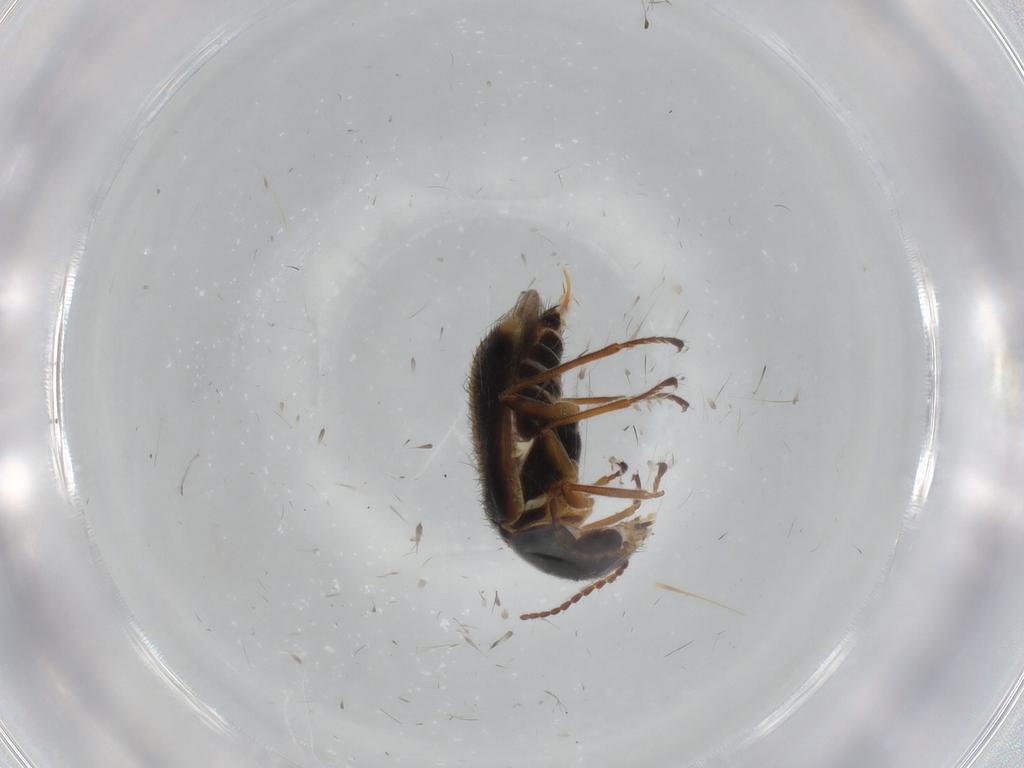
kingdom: Animalia
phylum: Arthropoda
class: Insecta
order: Coleoptera
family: Melyridae
